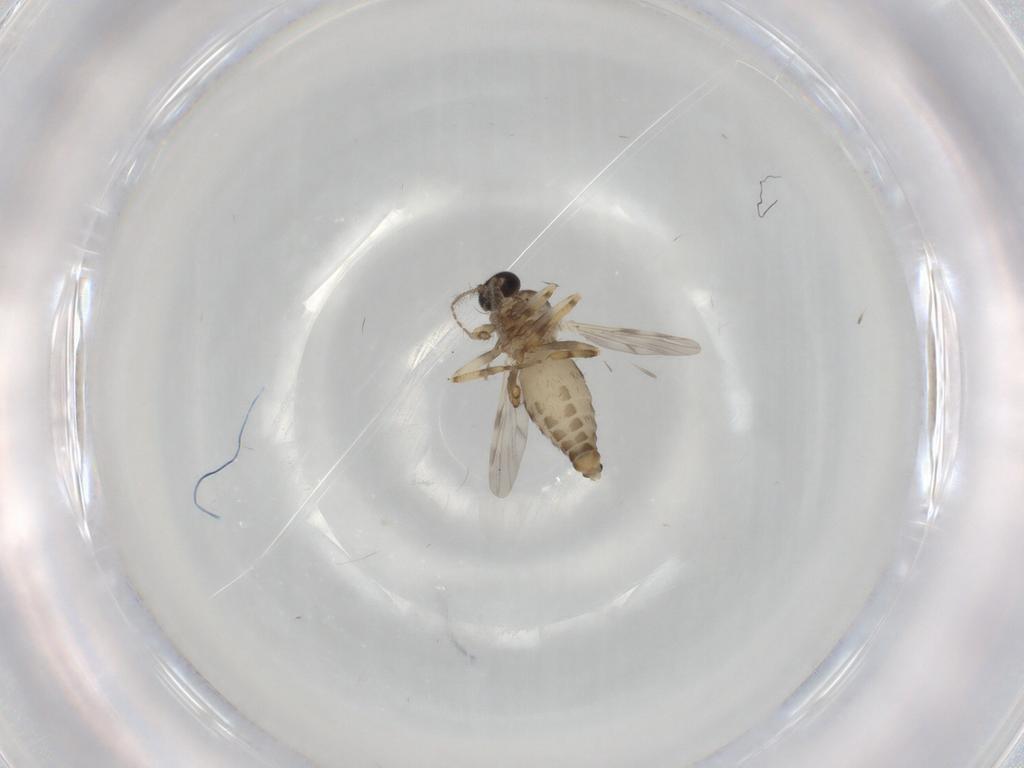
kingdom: Animalia
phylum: Arthropoda
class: Insecta
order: Diptera
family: Ceratopogonidae
